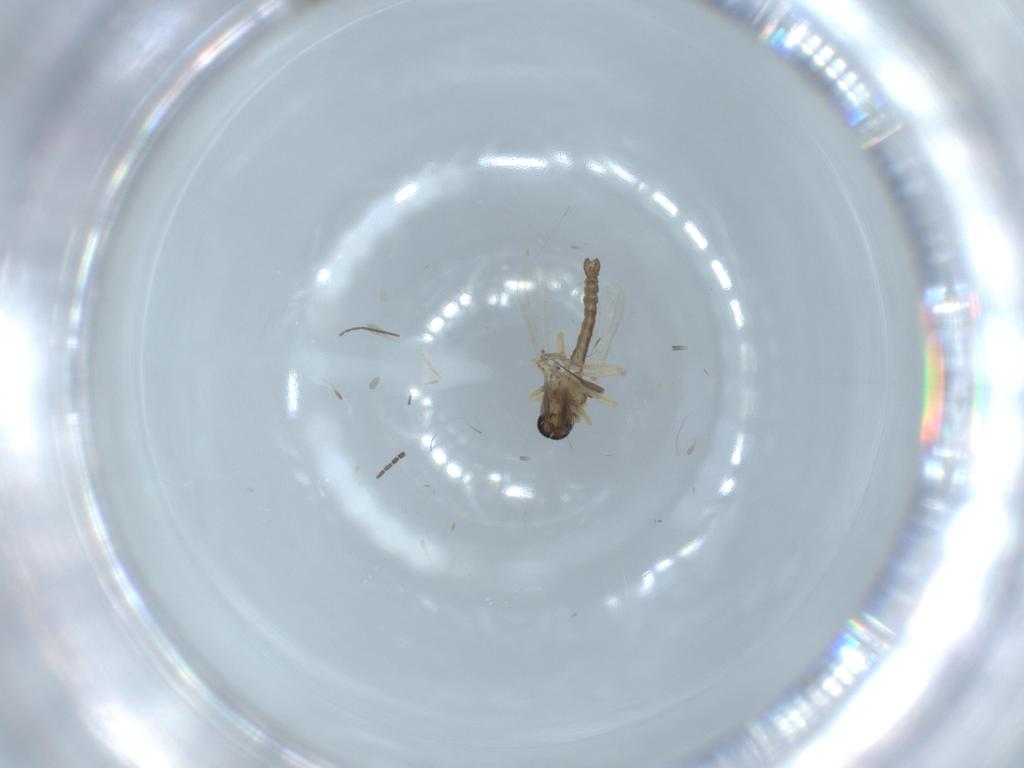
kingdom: Animalia
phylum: Arthropoda
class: Insecta
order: Diptera
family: Ceratopogonidae
